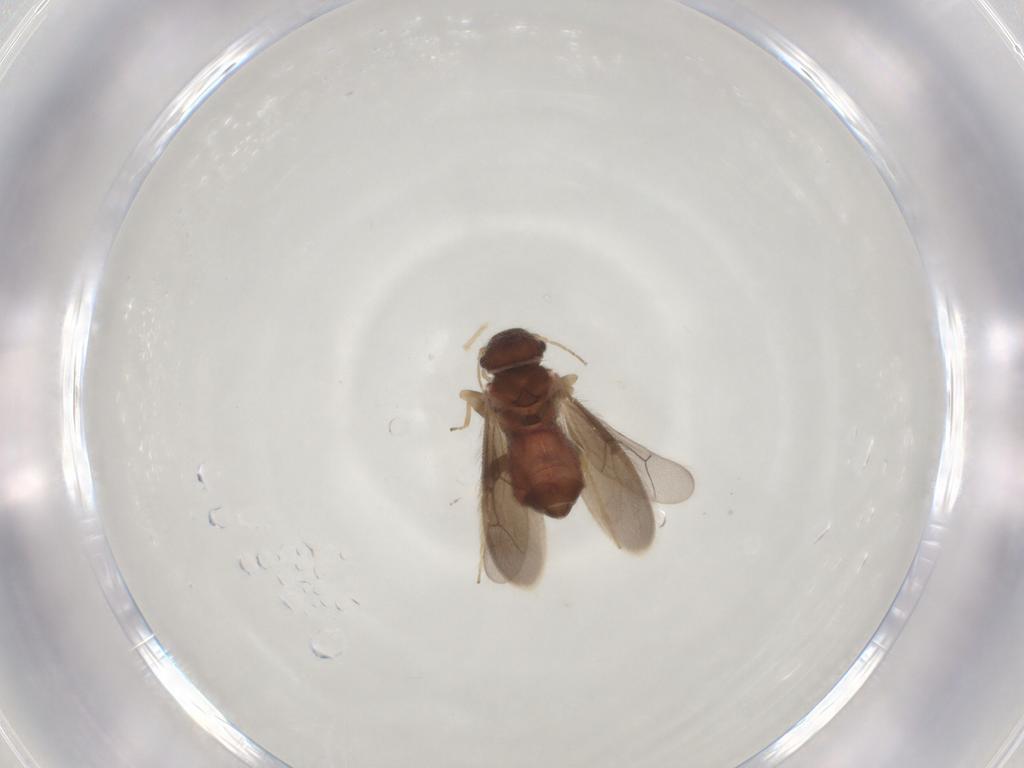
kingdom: Animalia
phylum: Arthropoda
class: Insecta
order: Psocodea
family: Archipsocidae
